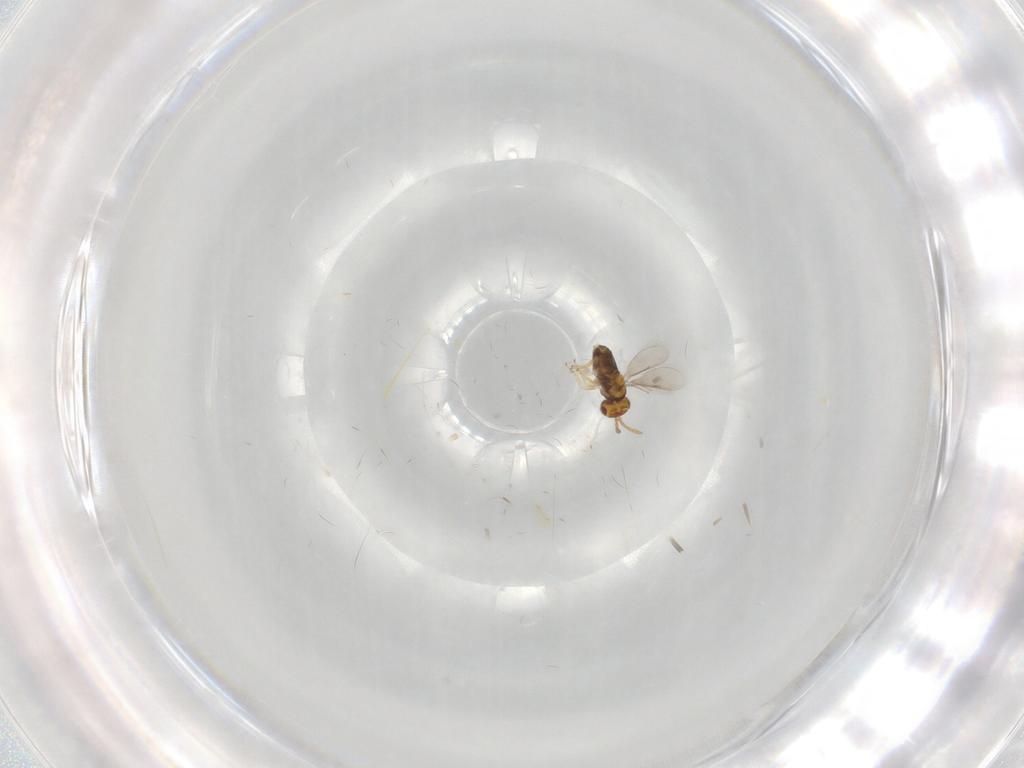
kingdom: Animalia
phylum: Arthropoda
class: Insecta
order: Hymenoptera
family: Aphelinidae
